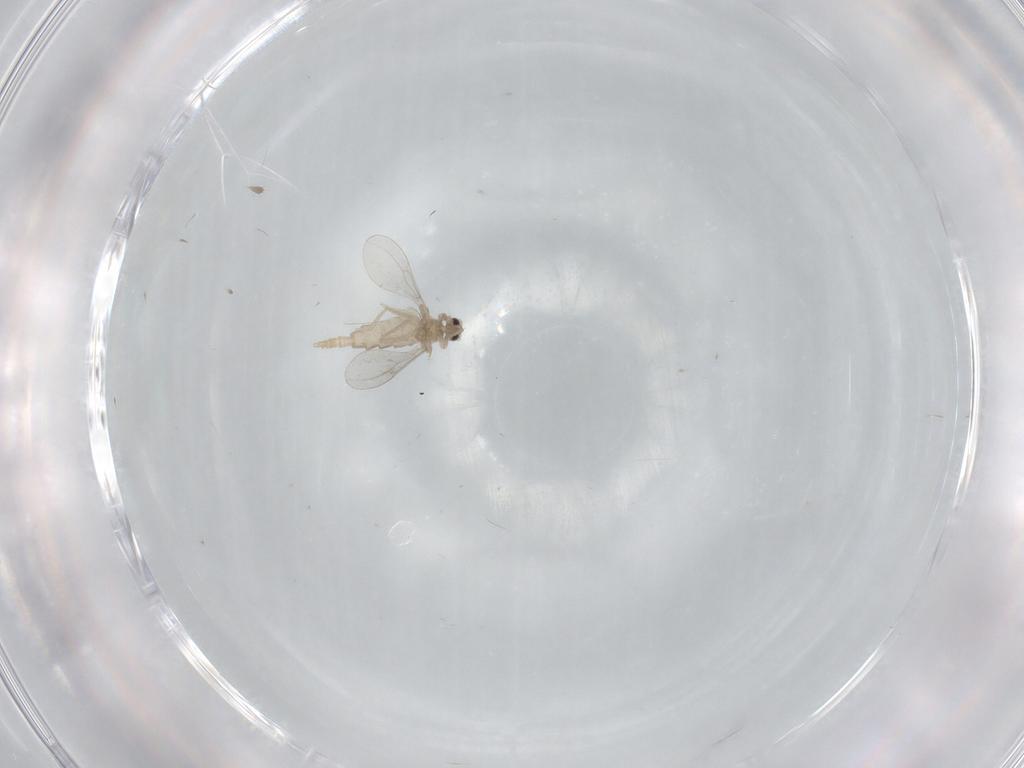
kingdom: Animalia
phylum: Arthropoda
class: Insecta
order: Diptera
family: Cecidomyiidae
